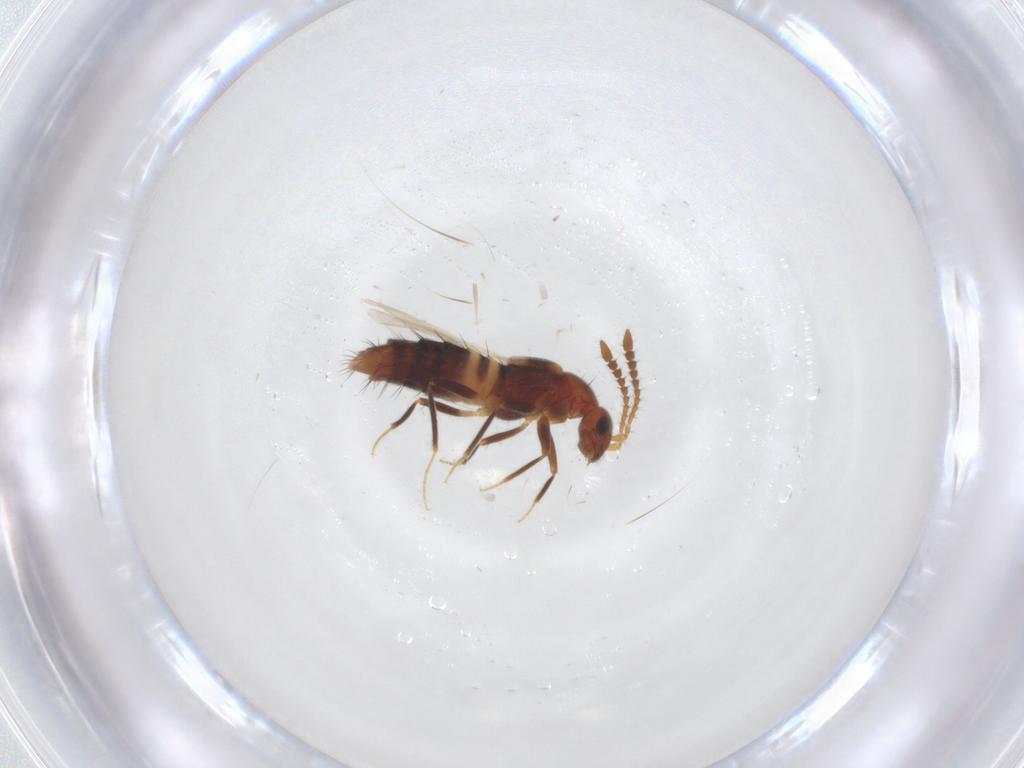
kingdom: Animalia
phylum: Arthropoda
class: Insecta
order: Coleoptera
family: Staphylinidae
